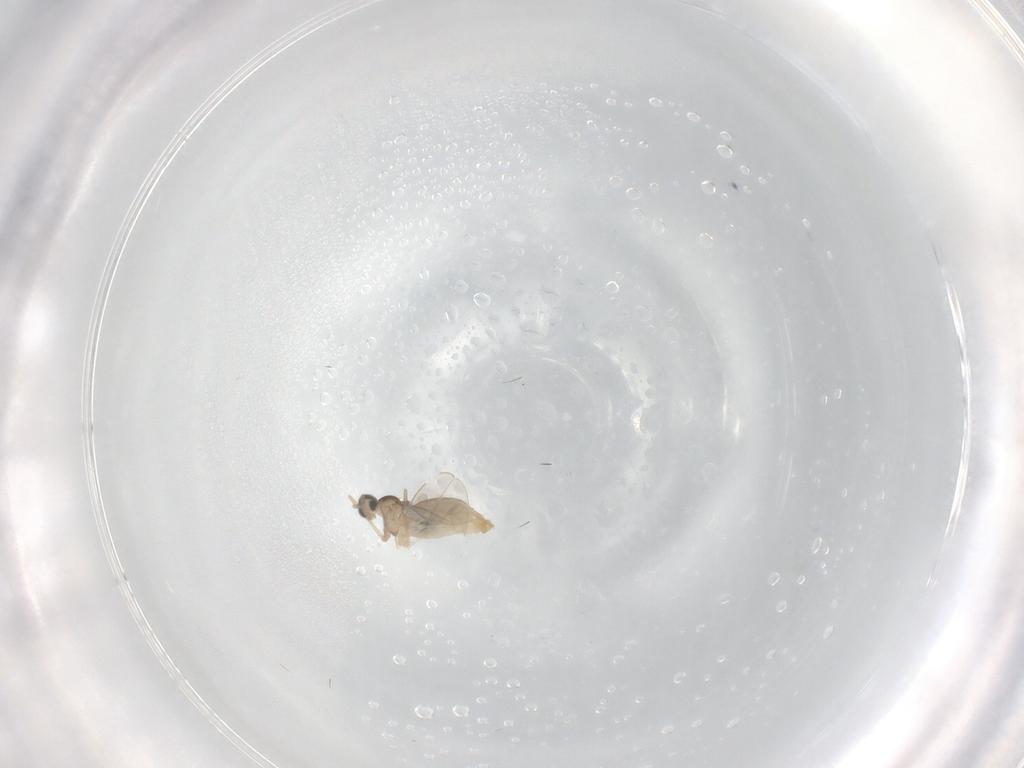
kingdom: Animalia
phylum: Arthropoda
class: Insecta
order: Diptera
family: Cecidomyiidae
